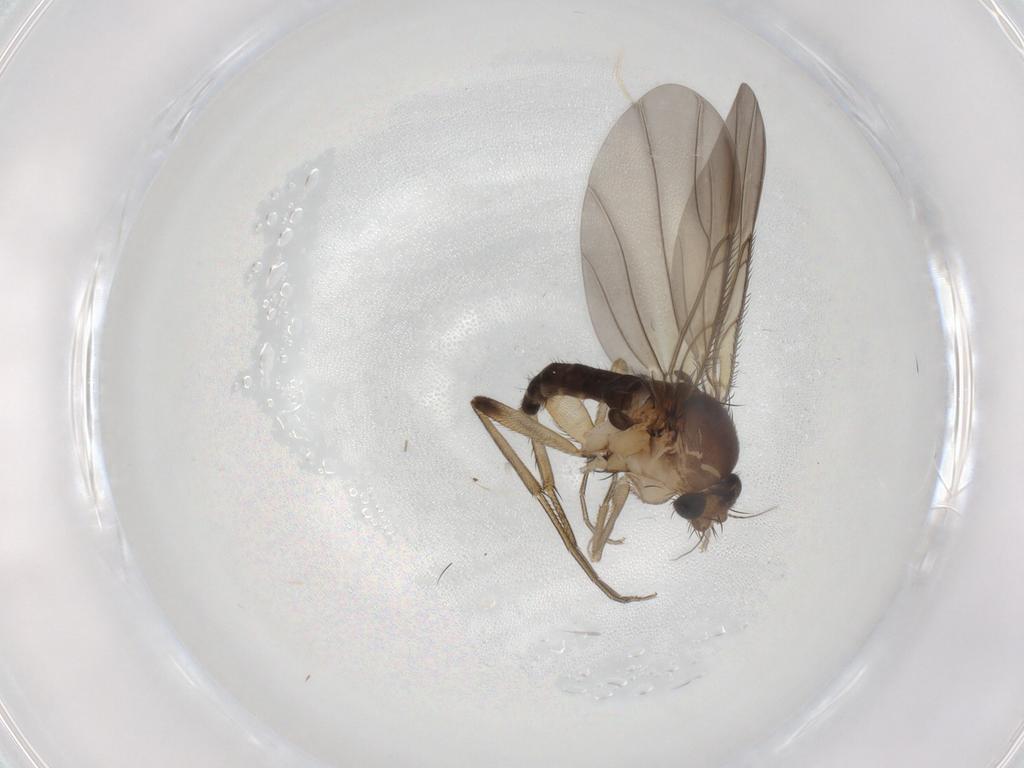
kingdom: Animalia
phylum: Arthropoda
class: Insecta
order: Diptera
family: Phoridae
